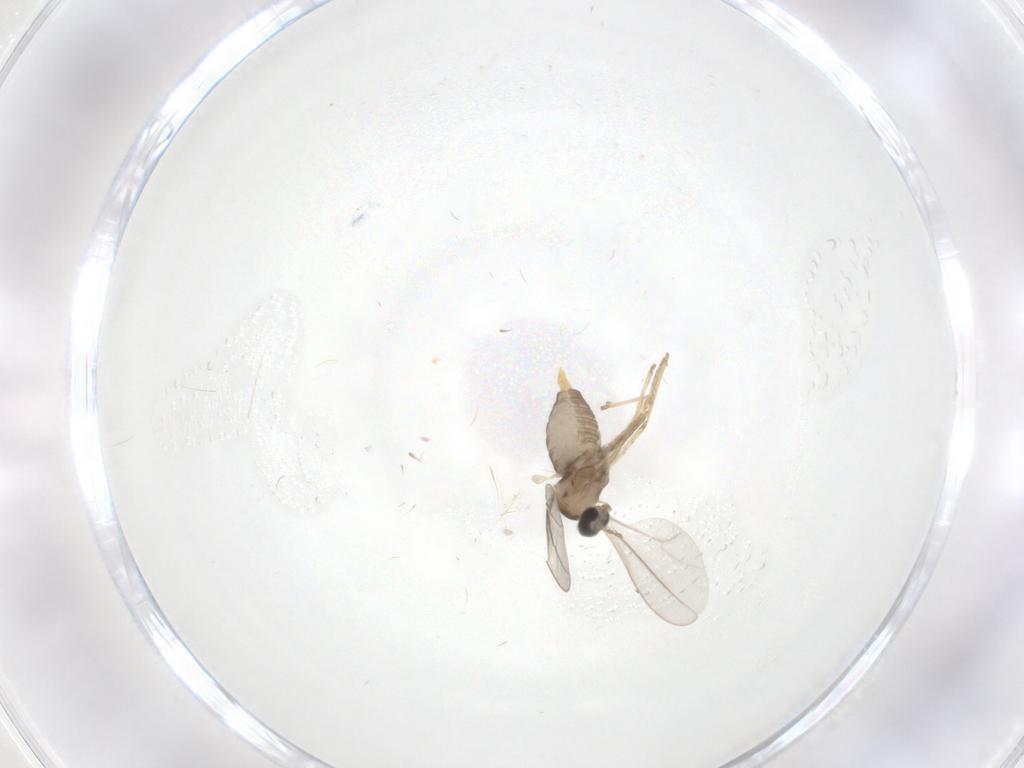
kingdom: Animalia
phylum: Arthropoda
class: Insecta
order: Diptera
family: Cecidomyiidae
